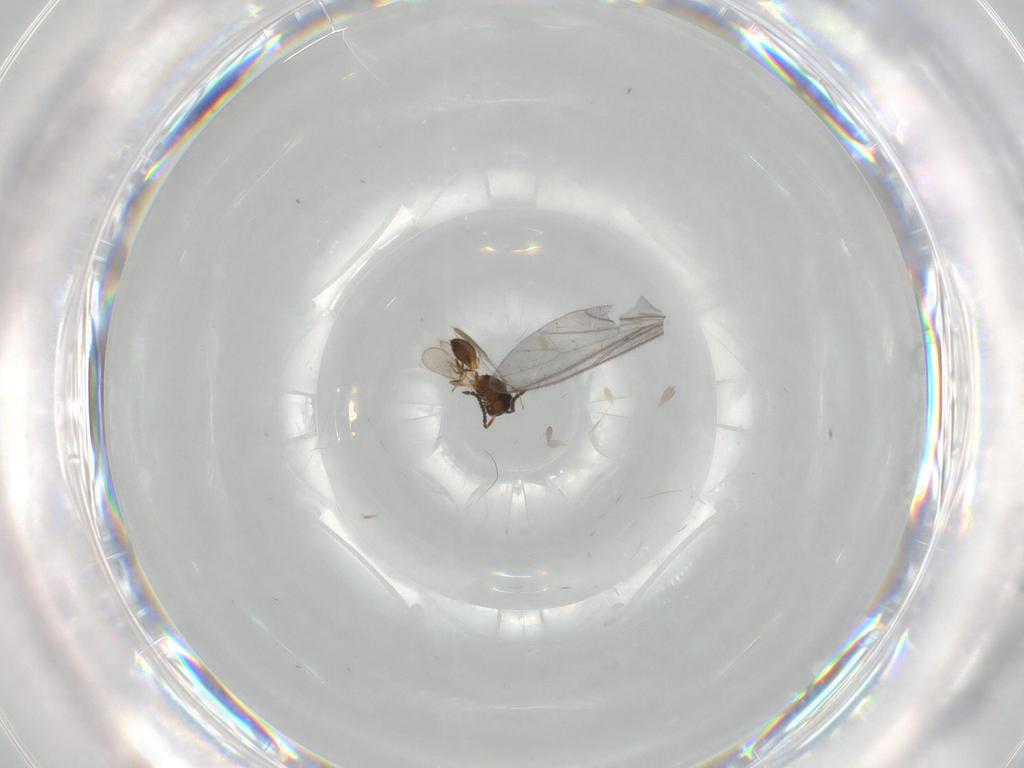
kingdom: Animalia
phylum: Arthropoda
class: Insecta
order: Hymenoptera
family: Scelionidae
